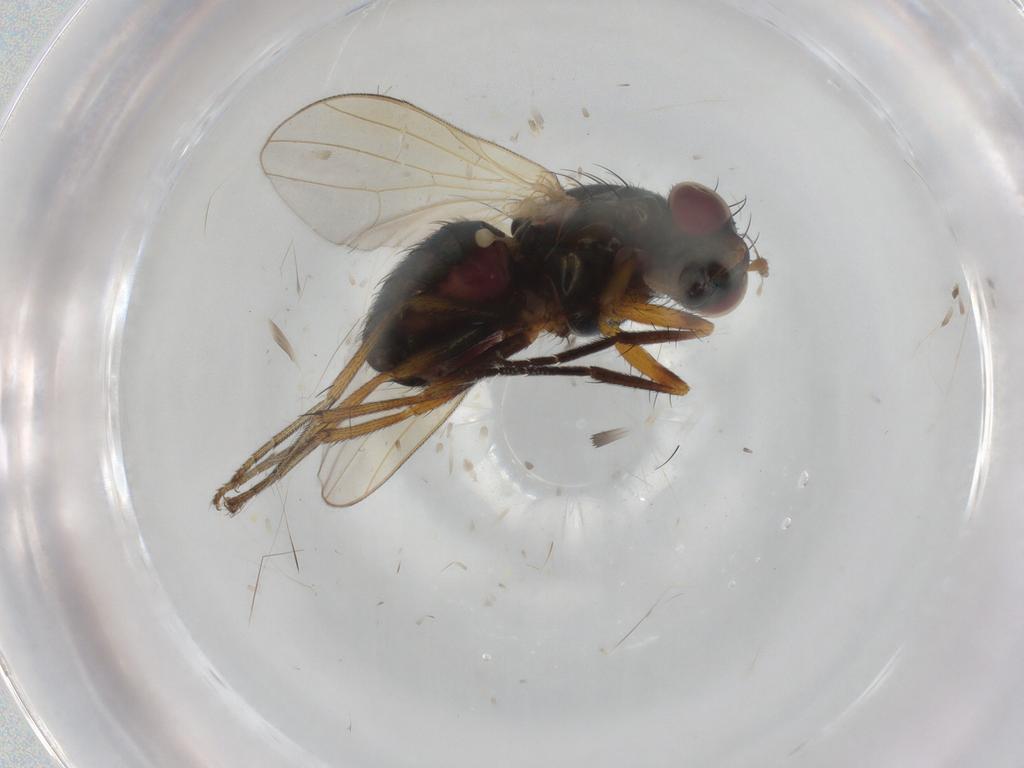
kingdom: Animalia
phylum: Arthropoda
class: Insecta
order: Diptera
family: Lauxaniidae
